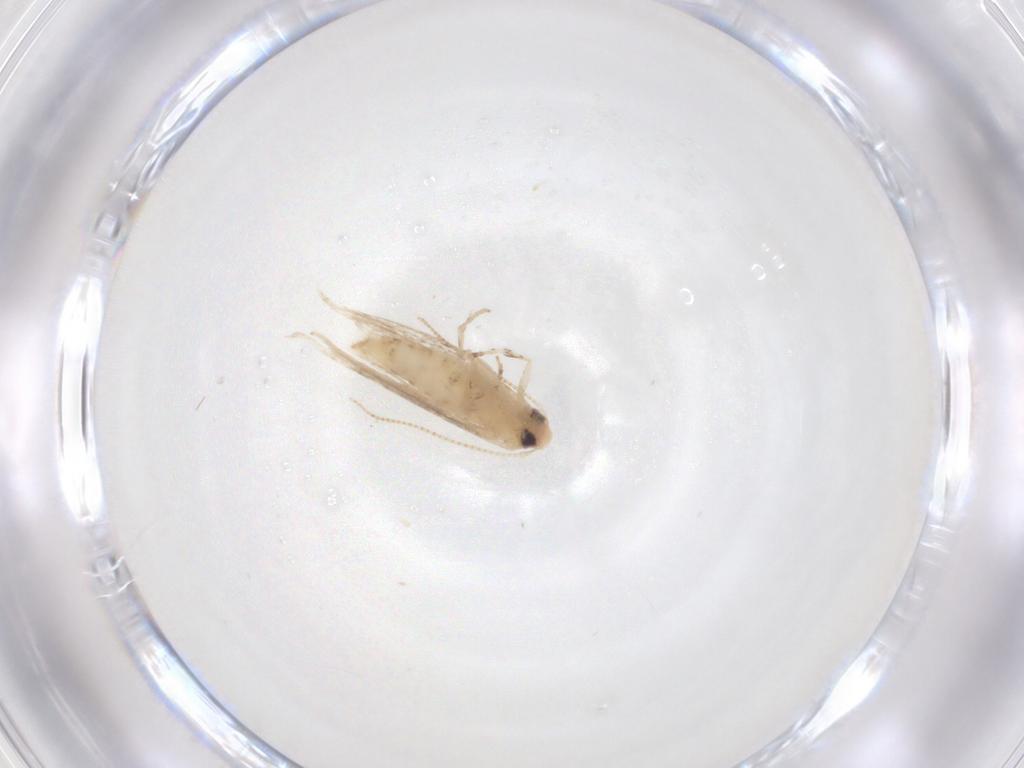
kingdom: Animalia
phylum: Arthropoda
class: Insecta
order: Lepidoptera
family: Gracillariidae
